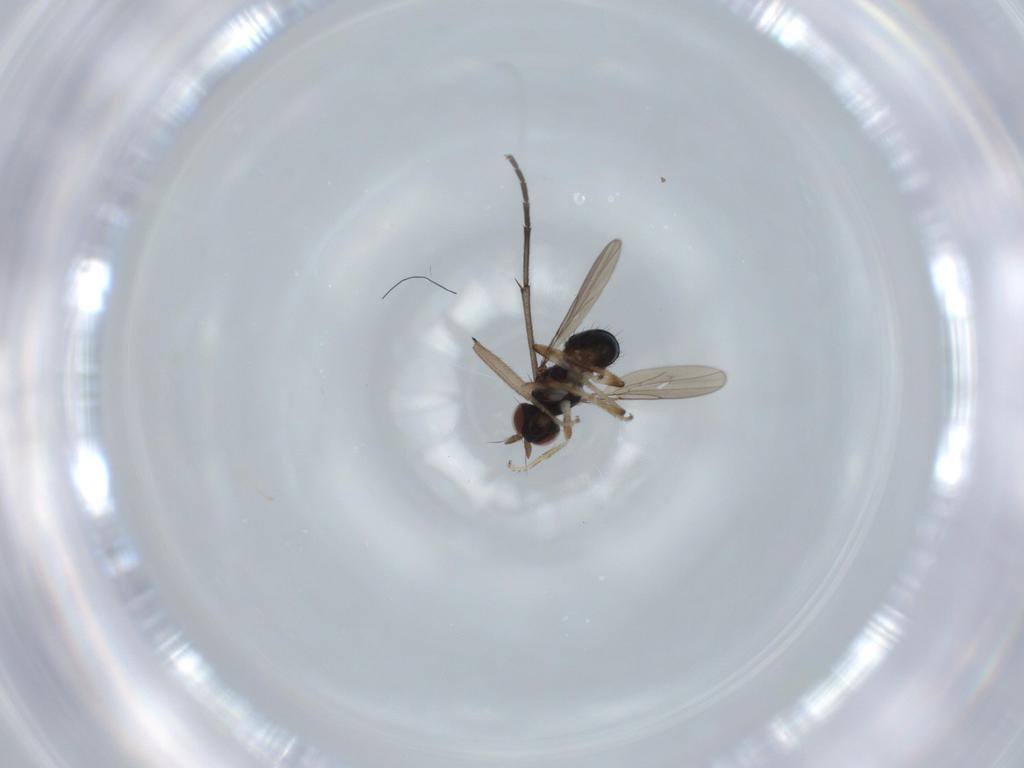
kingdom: Animalia
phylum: Arthropoda
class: Insecta
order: Diptera
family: Ephydridae
